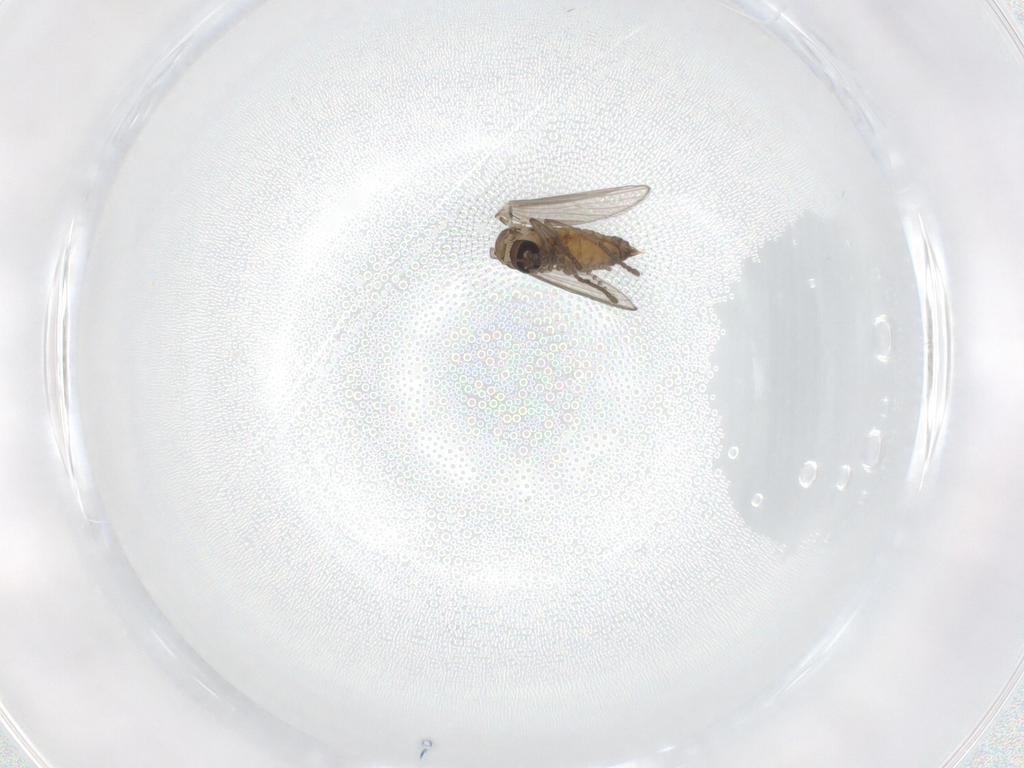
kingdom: Animalia
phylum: Arthropoda
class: Insecta
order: Diptera
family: Psychodidae
